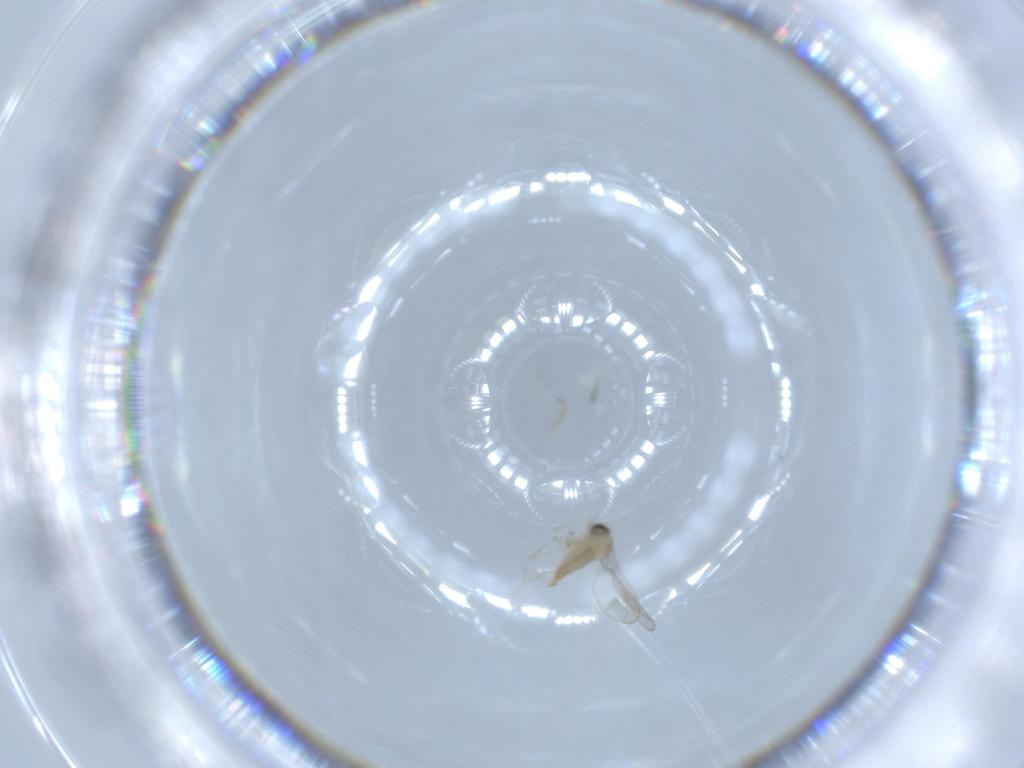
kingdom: Animalia
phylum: Arthropoda
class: Insecta
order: Diptera
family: Cecidomyiidae
